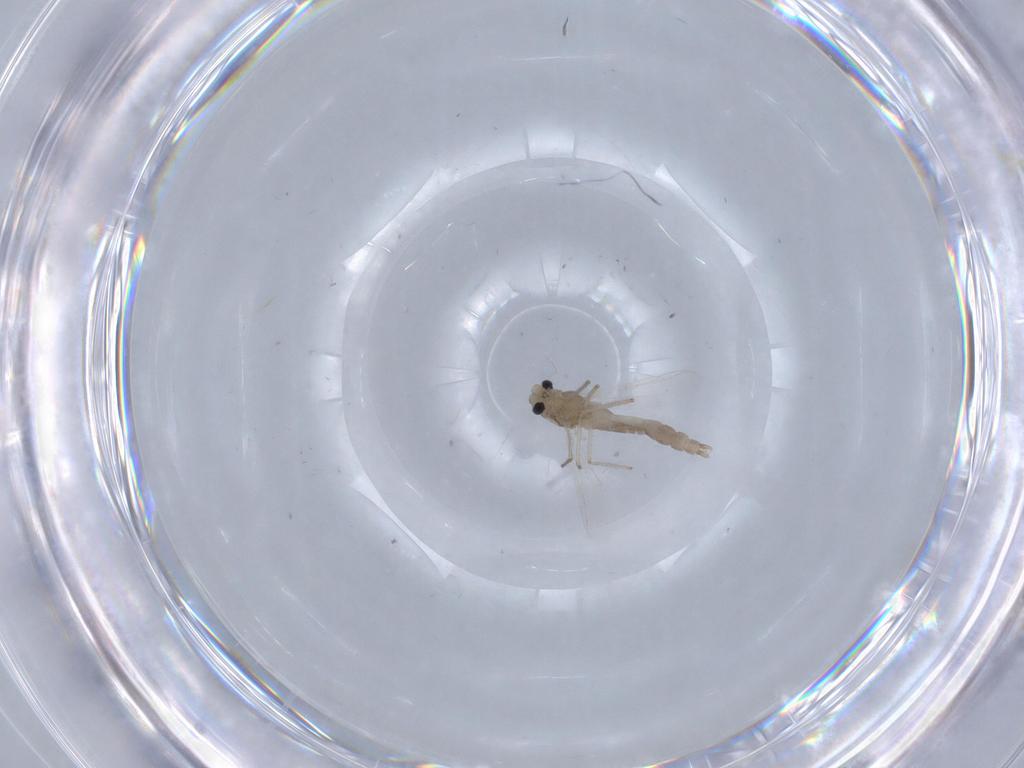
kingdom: Animalia
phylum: Arthropoda
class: Insecta
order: Diptera
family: Chironomidae
